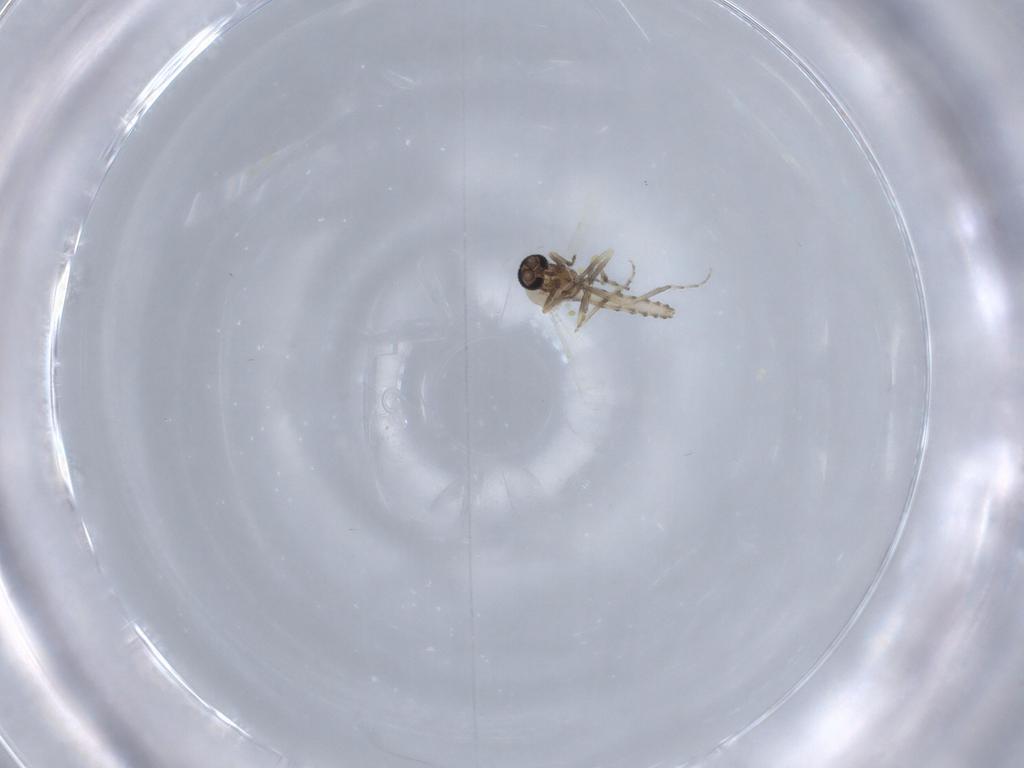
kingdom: Animalia
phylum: Arthropoda
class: Insecta
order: Diptera
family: Ceratopogonidae
